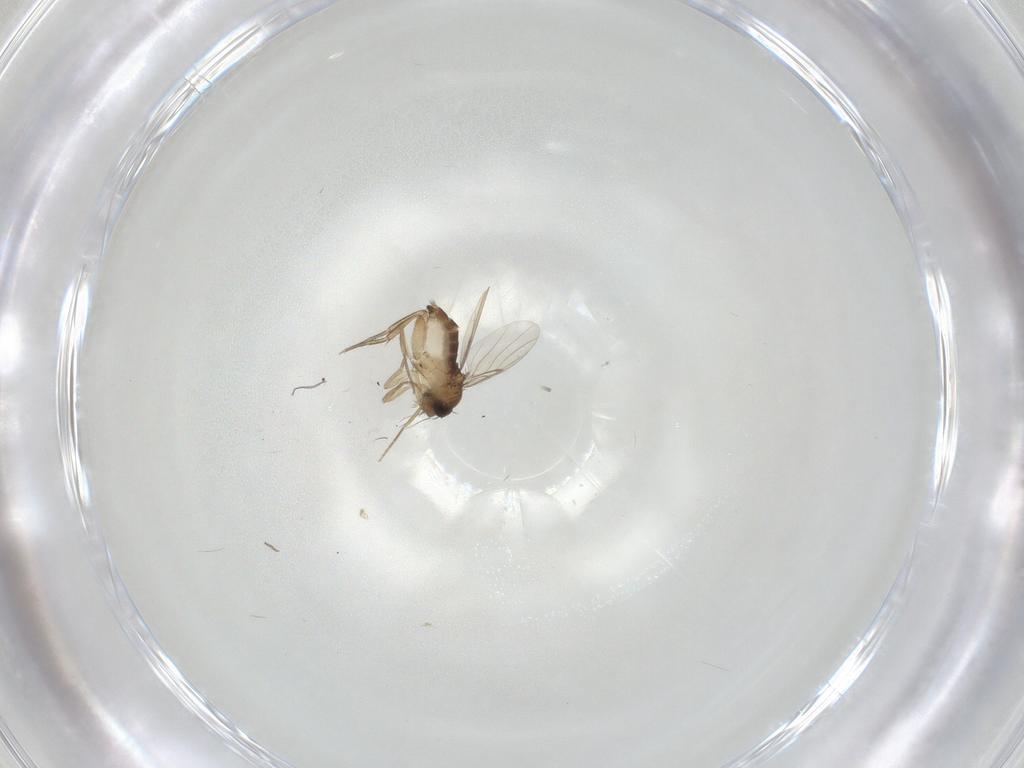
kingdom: Animalia
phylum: Arthropoda
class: Insecta
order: Diptera
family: Phoridae
